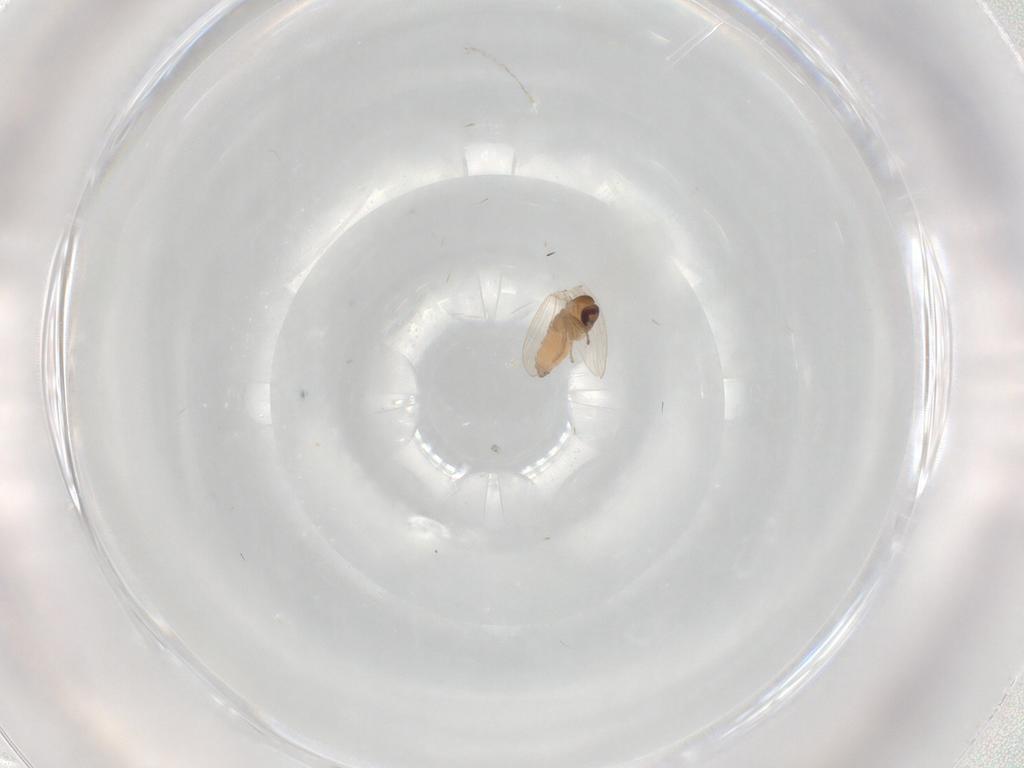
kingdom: Animalia
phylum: Arthropoda
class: Insecta
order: Diptera
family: Psychodidae
